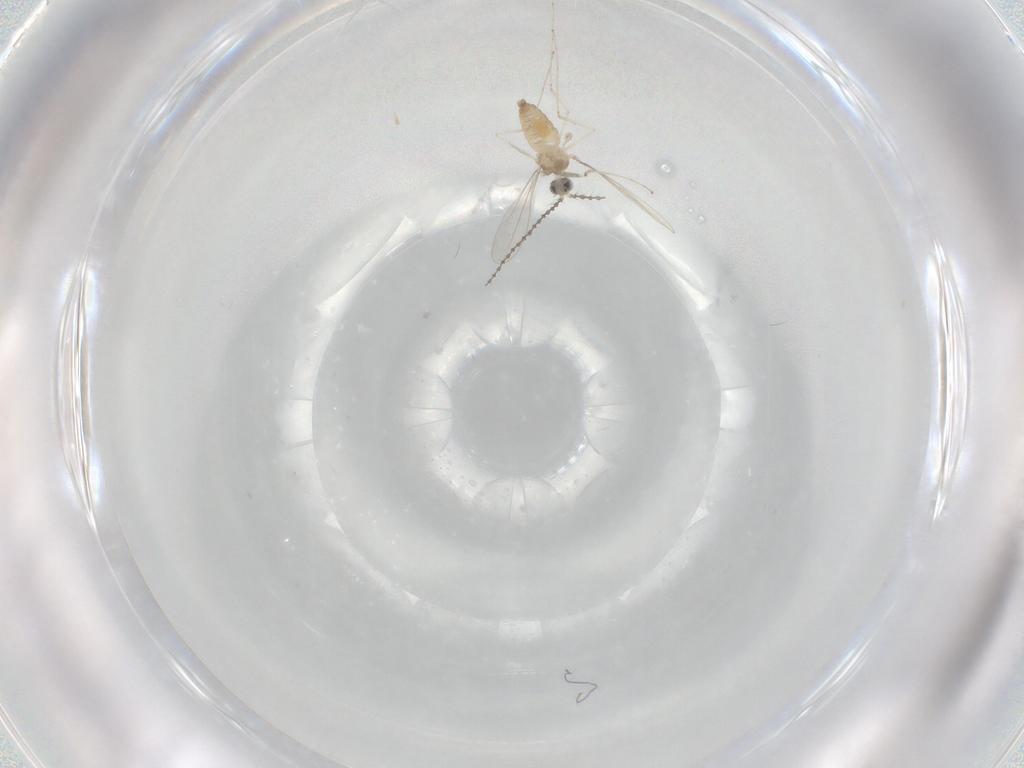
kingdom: Animalia
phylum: Arthropoda
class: Insecta
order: Diptera
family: Cecidomyiidae
